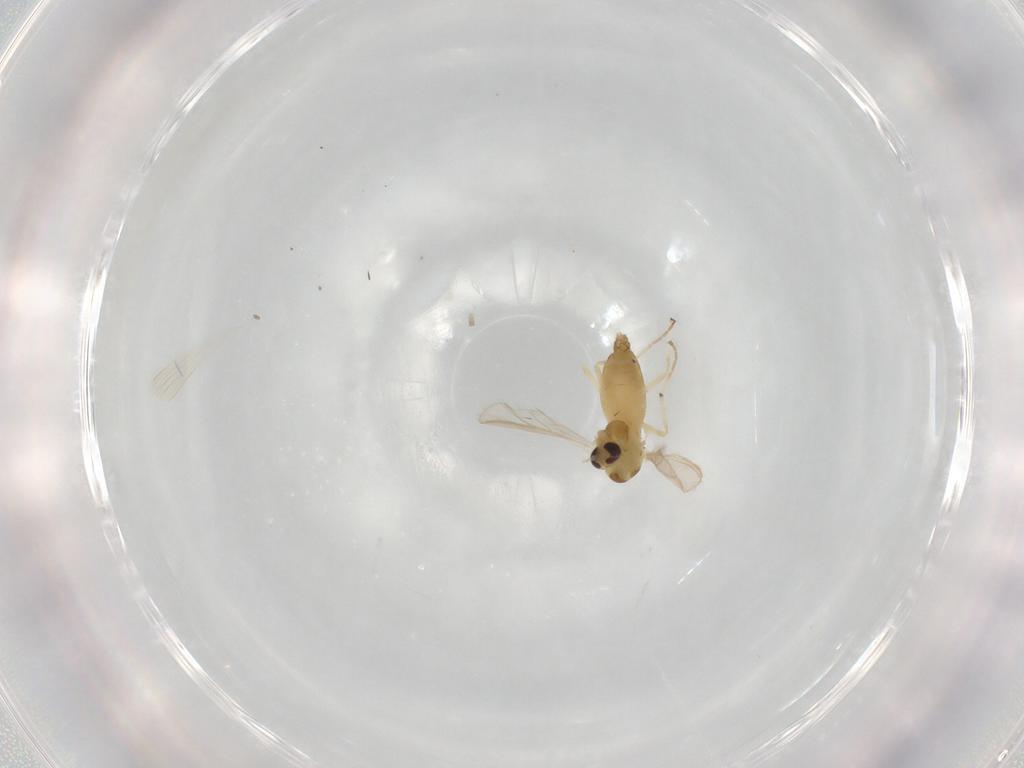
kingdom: Animalia
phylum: Arthropoda
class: Insecta
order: Diptera
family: Chironomidae
